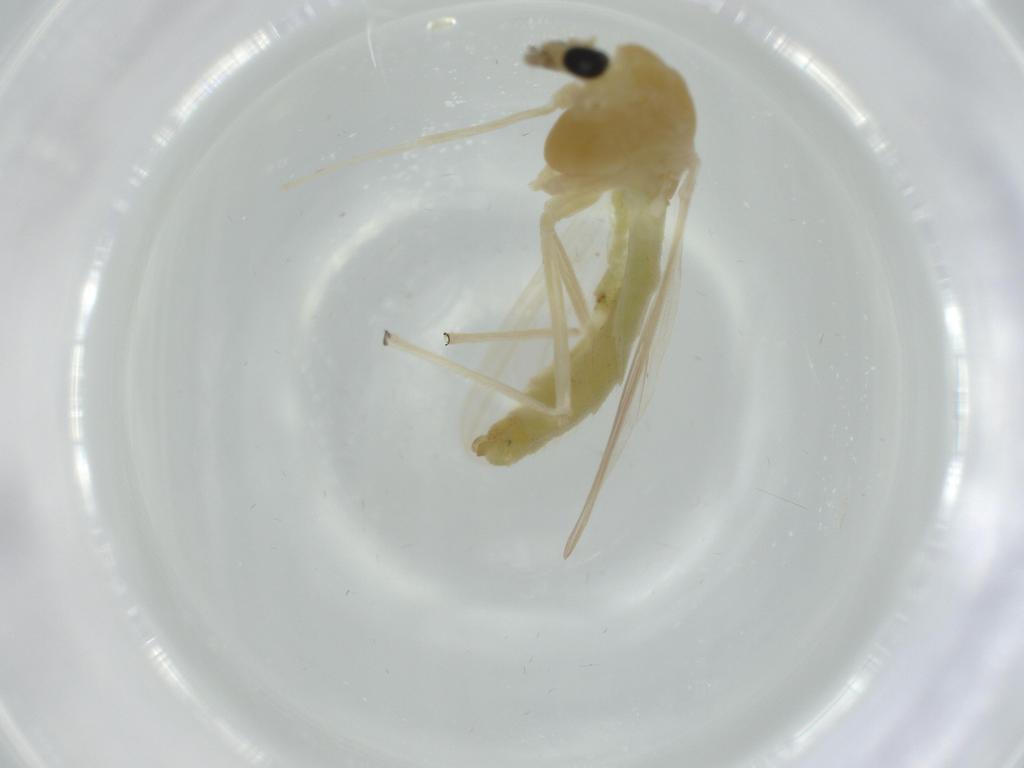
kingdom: Animalia
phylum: Arthropoda
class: Insecta
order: Diptera
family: Chironomidae
